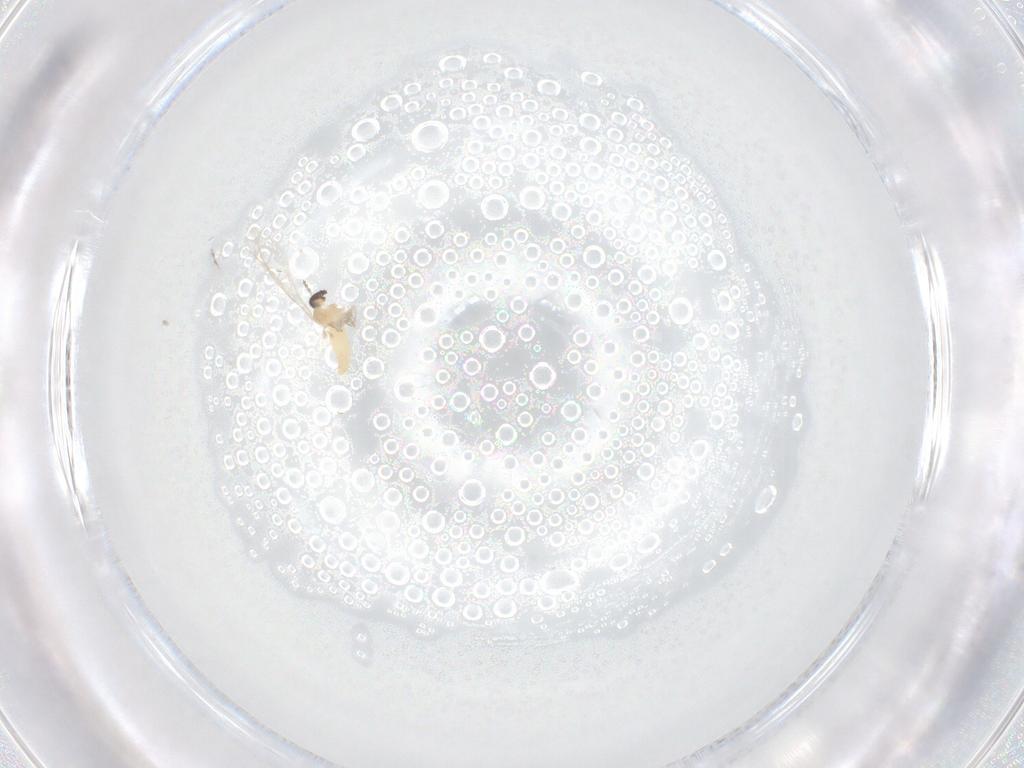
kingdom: Animalia
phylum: Arthropoda
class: Insecta
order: Diptera
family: Cecidomyiidae
